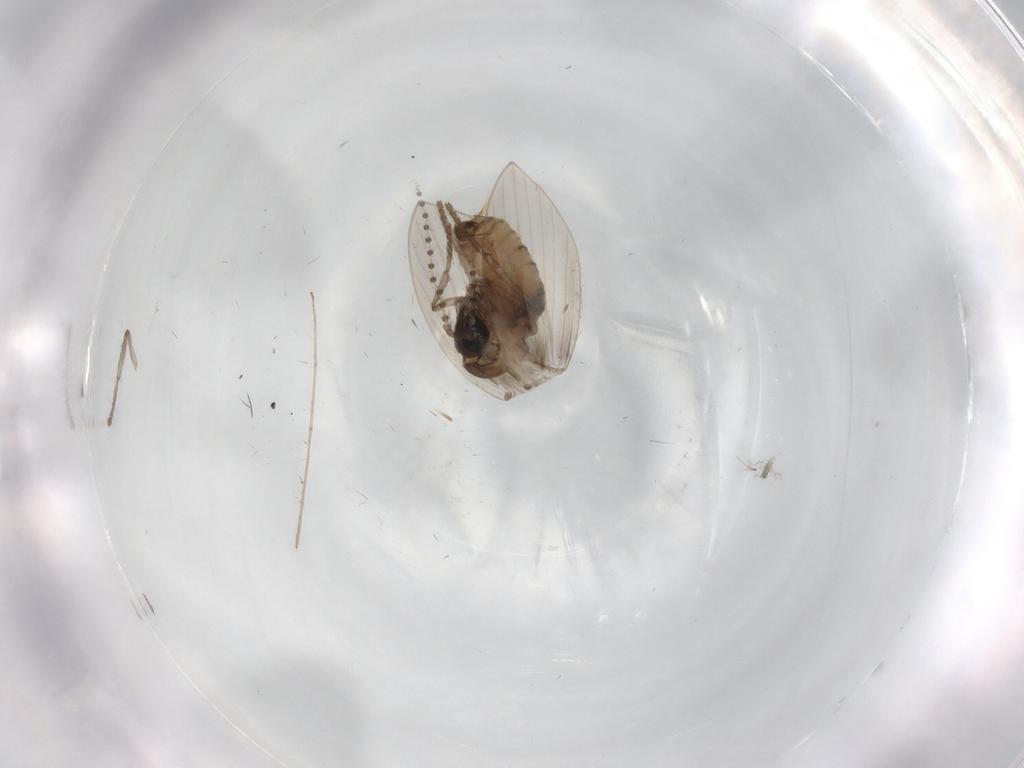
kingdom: Animalia
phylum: Arthropoda
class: Insecta
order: Diptera
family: Psychodidae
